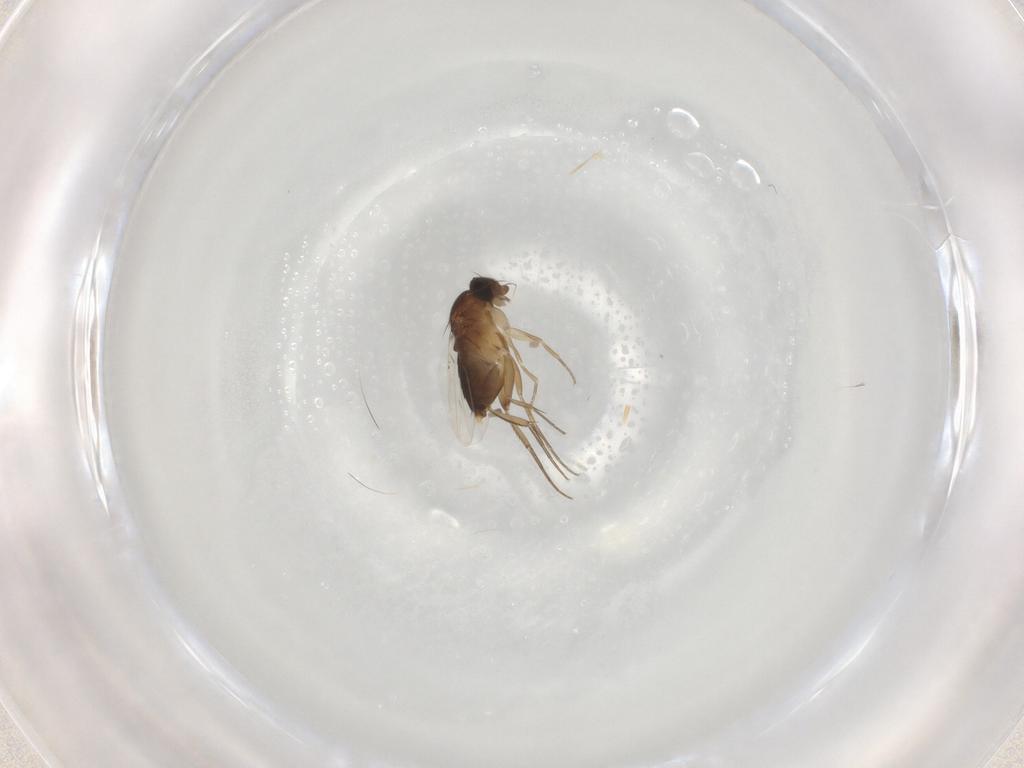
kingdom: Animalia
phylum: Arthropoda
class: Insecta
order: Diptera
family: Phoridae
